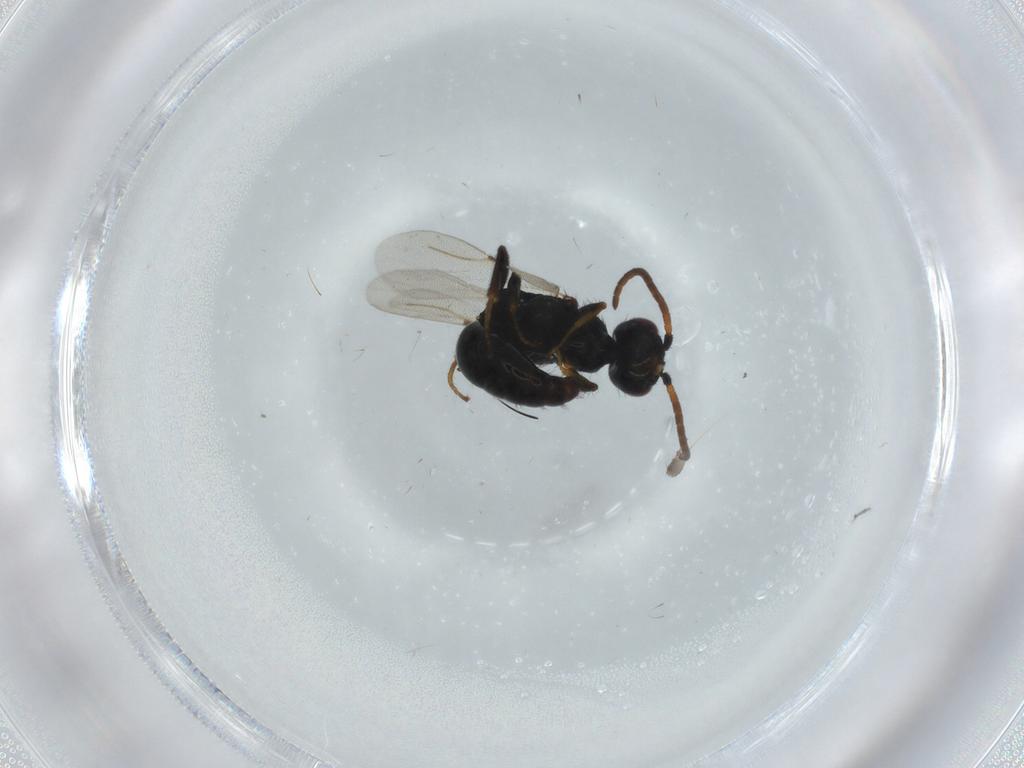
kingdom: Animalia
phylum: Arthropoda
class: Insecta
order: Hymenoptera
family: Bethylidae
